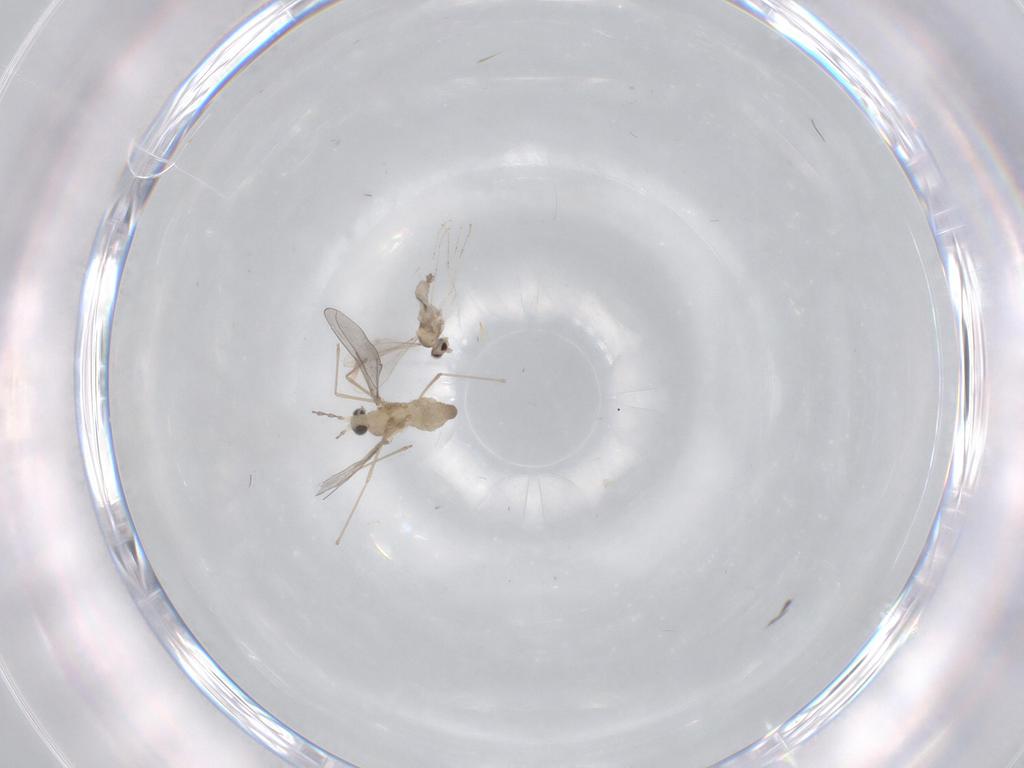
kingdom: Animalia
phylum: Arthropoda
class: Insecta
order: Diptera
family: Cecidomyiidae
